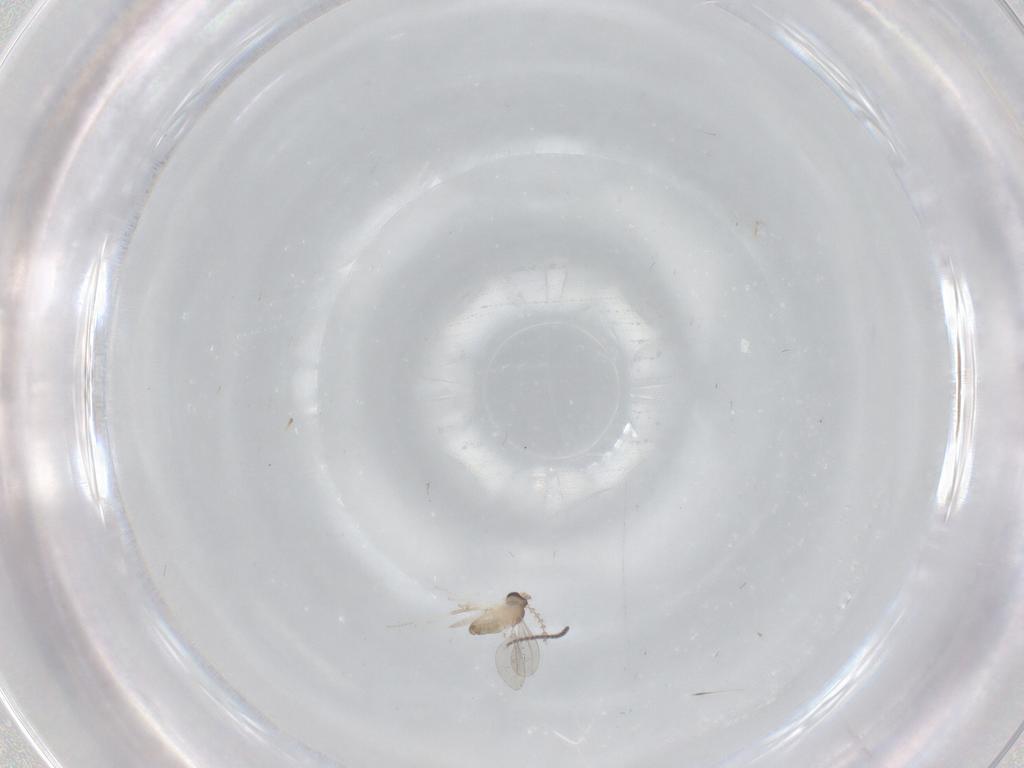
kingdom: Animalia
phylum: Arthropoda
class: Insecta
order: Diptera
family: Cecidomyiidae
